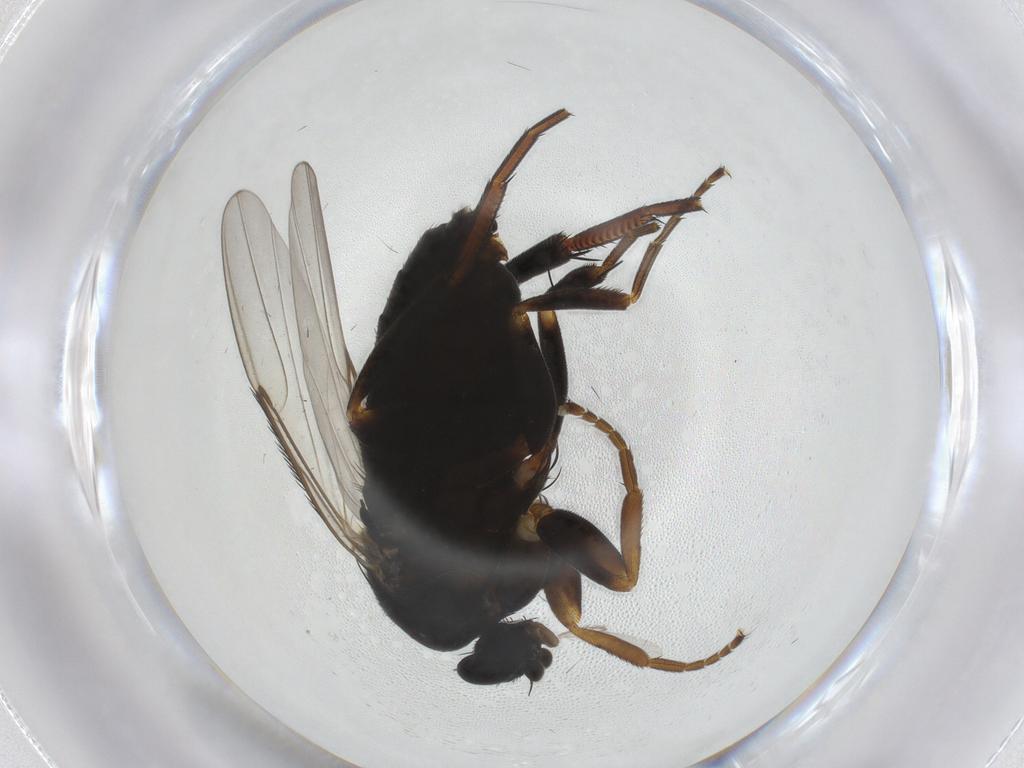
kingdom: Animalia
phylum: Arthropoda
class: Insecta
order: Diptera
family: Phoridae
